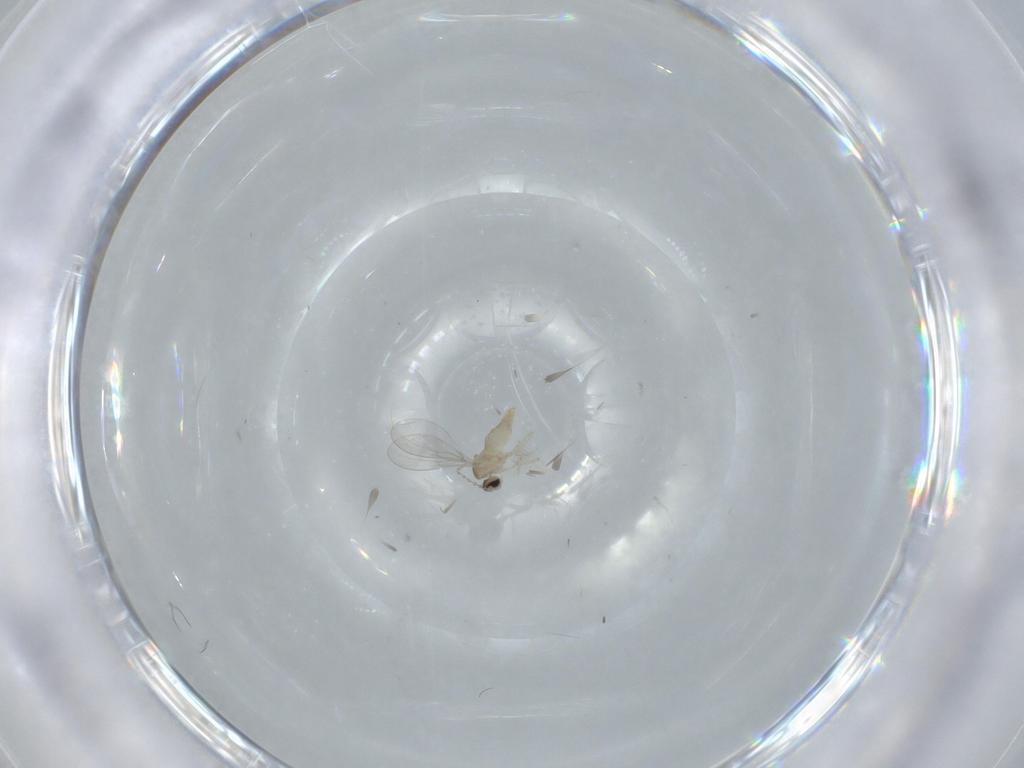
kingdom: Animalia
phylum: Arthropoda
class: Insecta
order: Diptera
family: Cecidomyiidae
